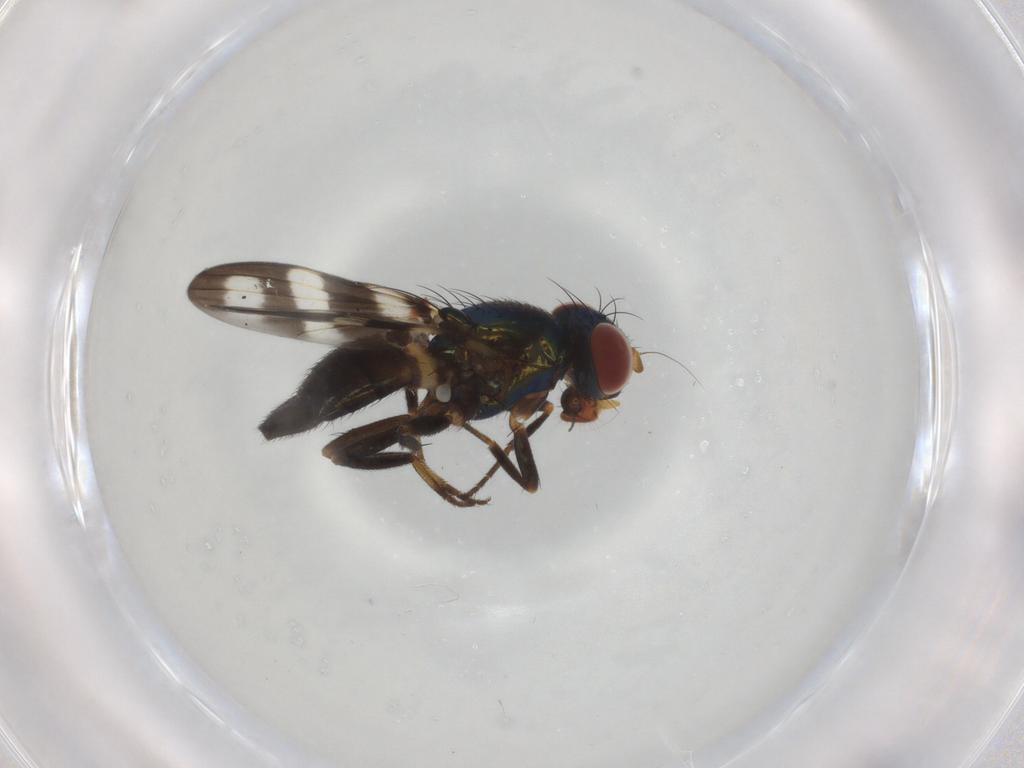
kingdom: Animalia
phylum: Arthropoda
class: Insecta
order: Diptera
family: Ulidiidae
